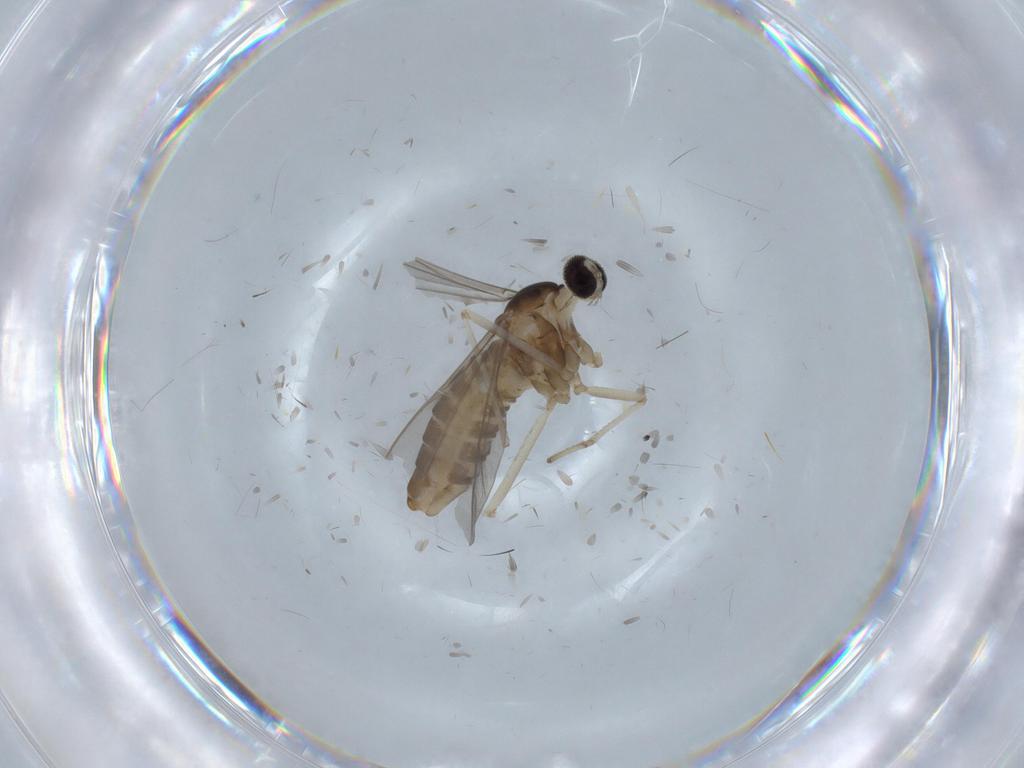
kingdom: Animalia
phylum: Arthropoda
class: Insecta
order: Diptera
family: Psychodidae
